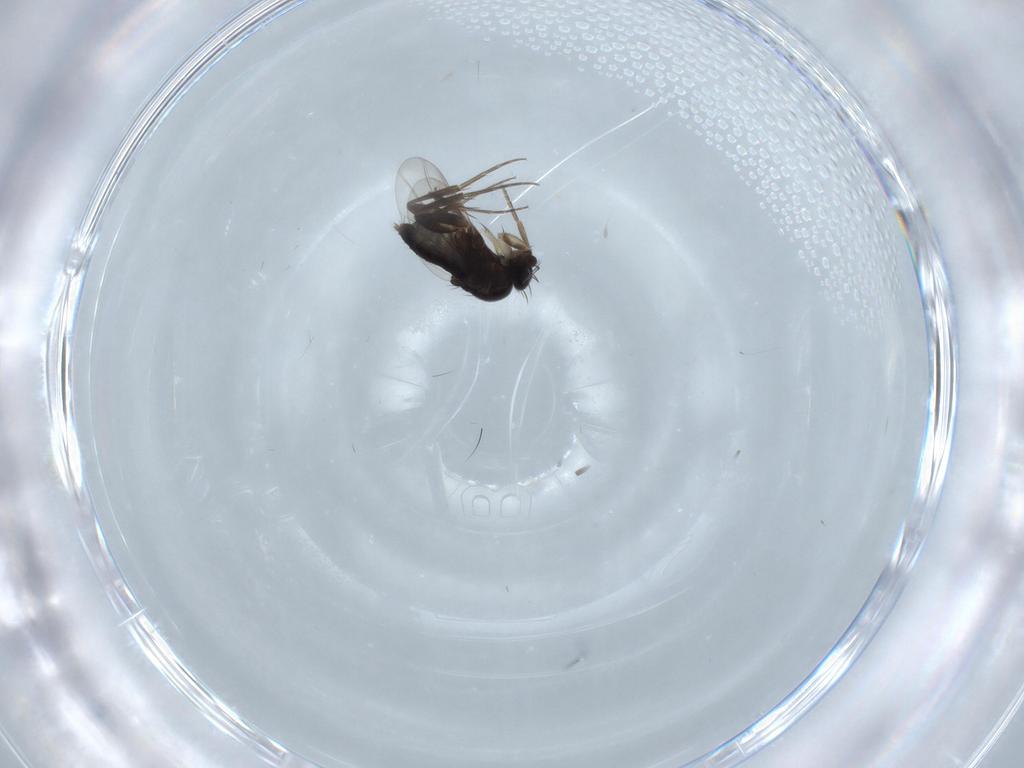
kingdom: Animalia
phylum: Arthropoda
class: Insecta
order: Diptera
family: Phoridae
